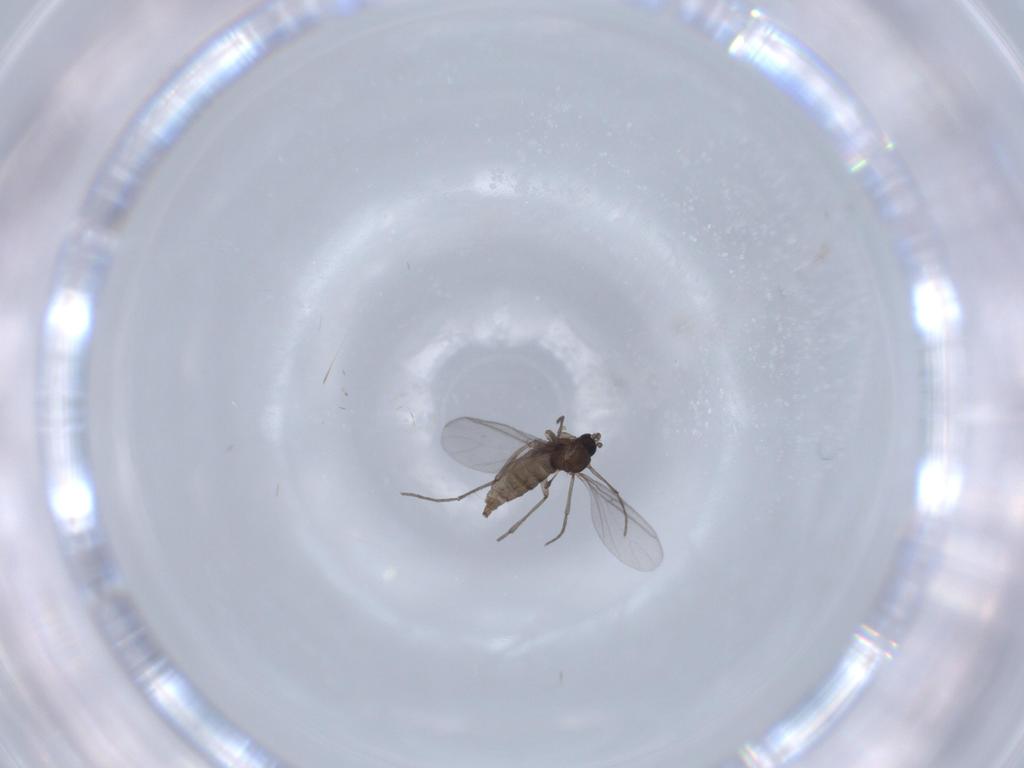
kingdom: Animalia
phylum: Arthropoda
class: Insecta
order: Diptera
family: Sciaridae
